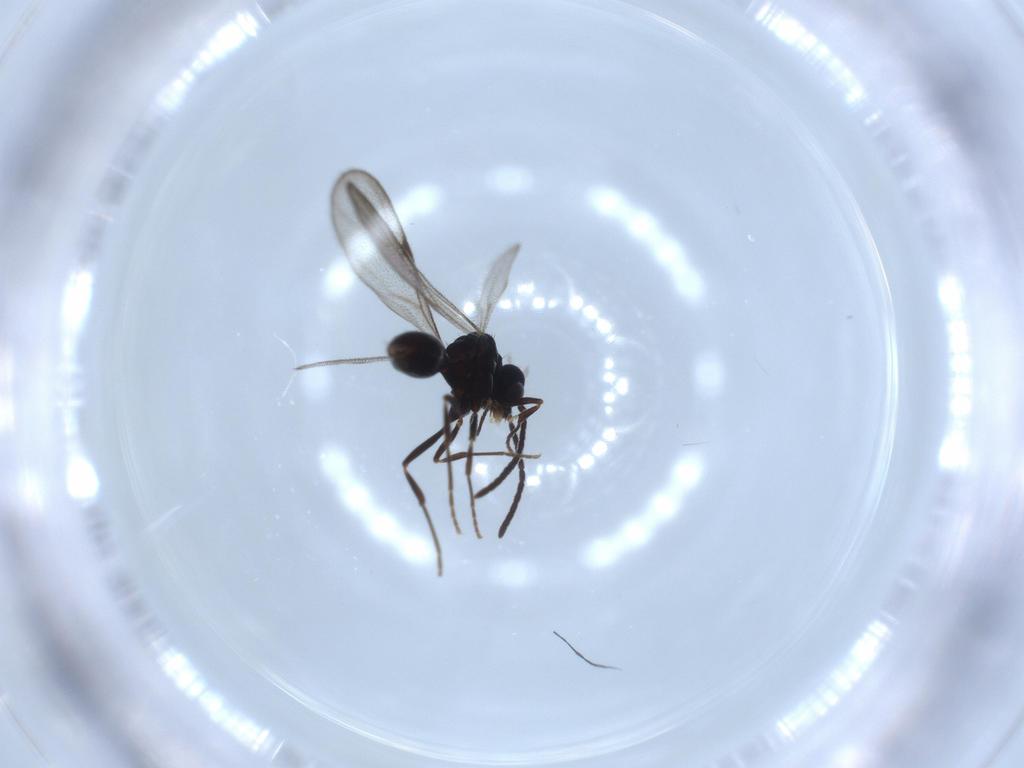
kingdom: Animalia
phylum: Arthropoda
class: Insecta
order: Hymenoptera
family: Formicidae
